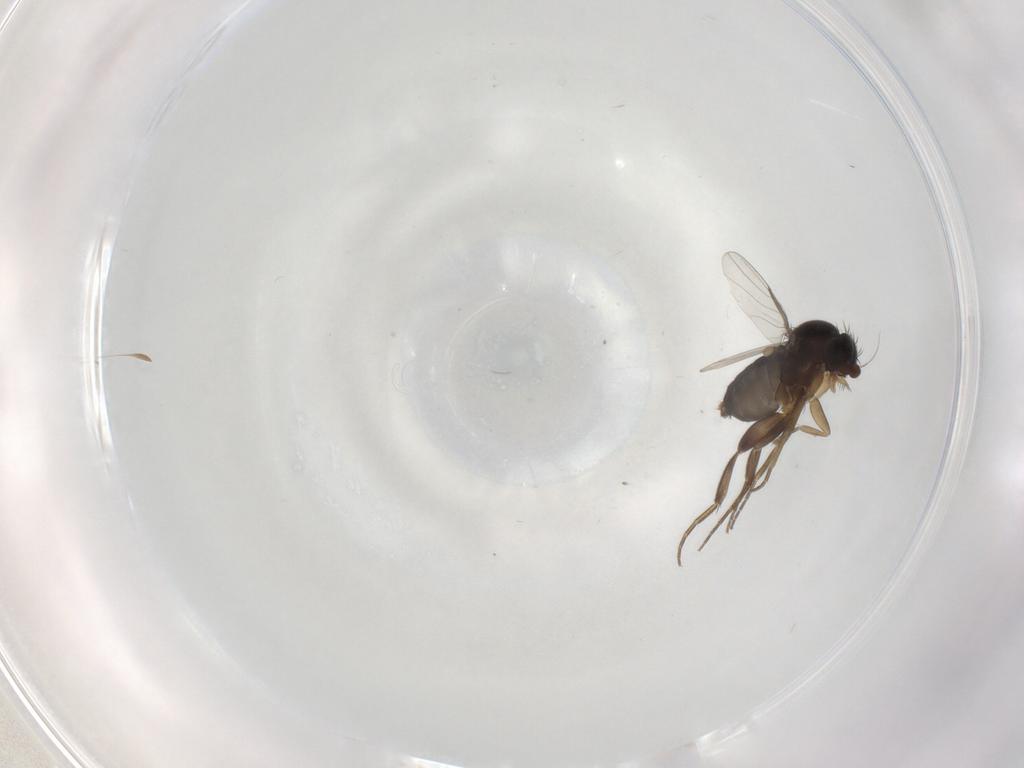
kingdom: Animalia
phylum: Arthropoda
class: Insecta
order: Diptera
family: Phoridae
